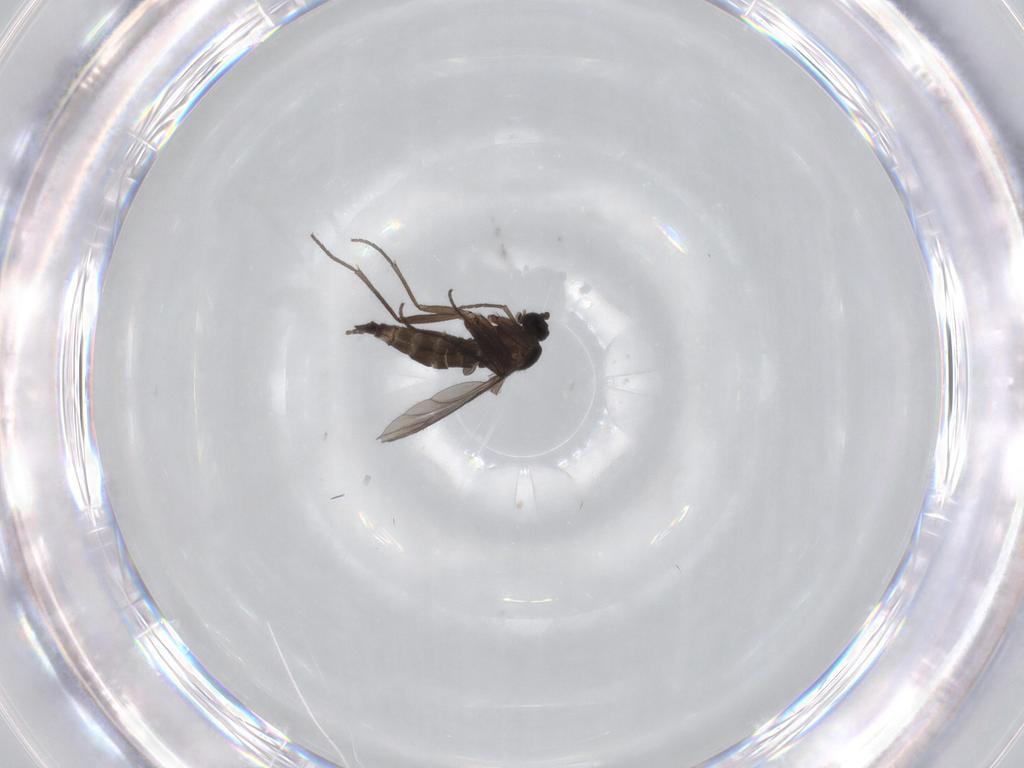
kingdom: Animalia
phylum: Arthropoda
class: Insecta
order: Diptera
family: Sciaridae
